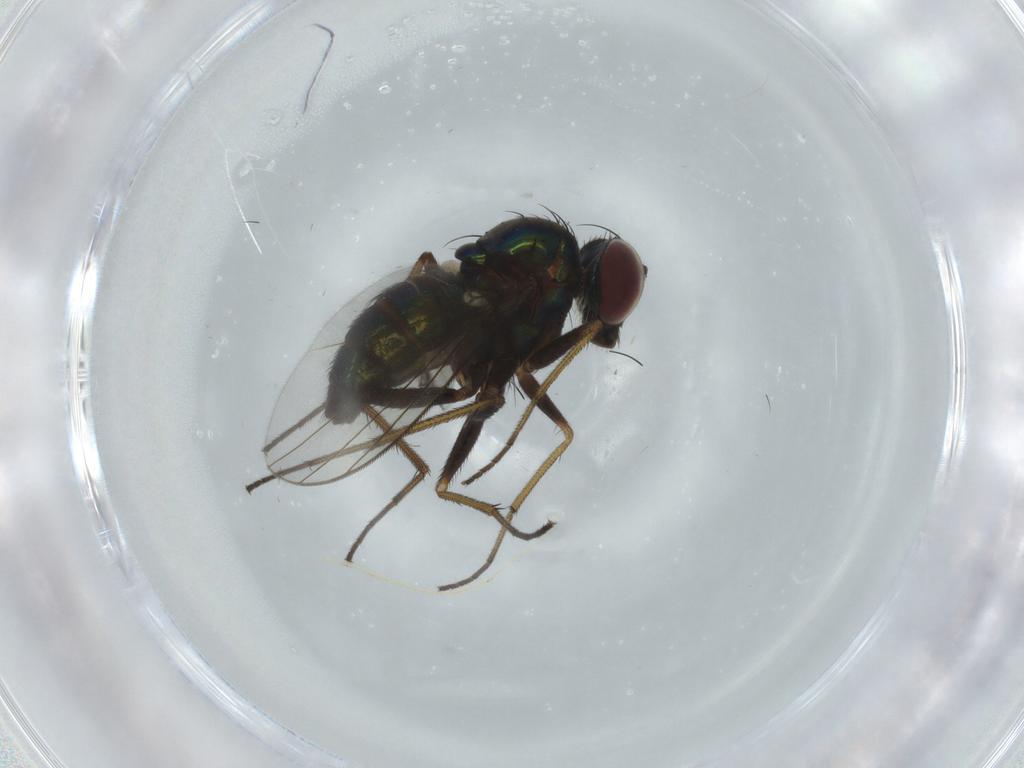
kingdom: Animalia
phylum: Arthropoda
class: Insecta
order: Diptera
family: Dolichopodidae
